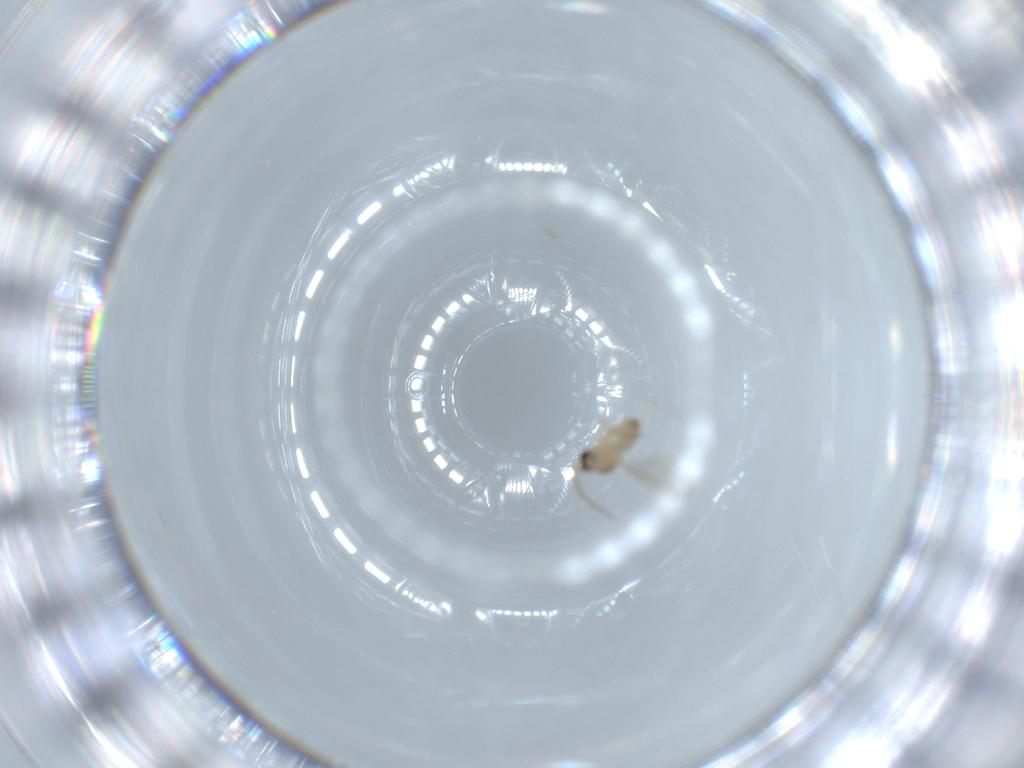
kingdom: Animalia
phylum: Arthropoda
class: Insecta
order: Diptera
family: Cecidomyiidae
